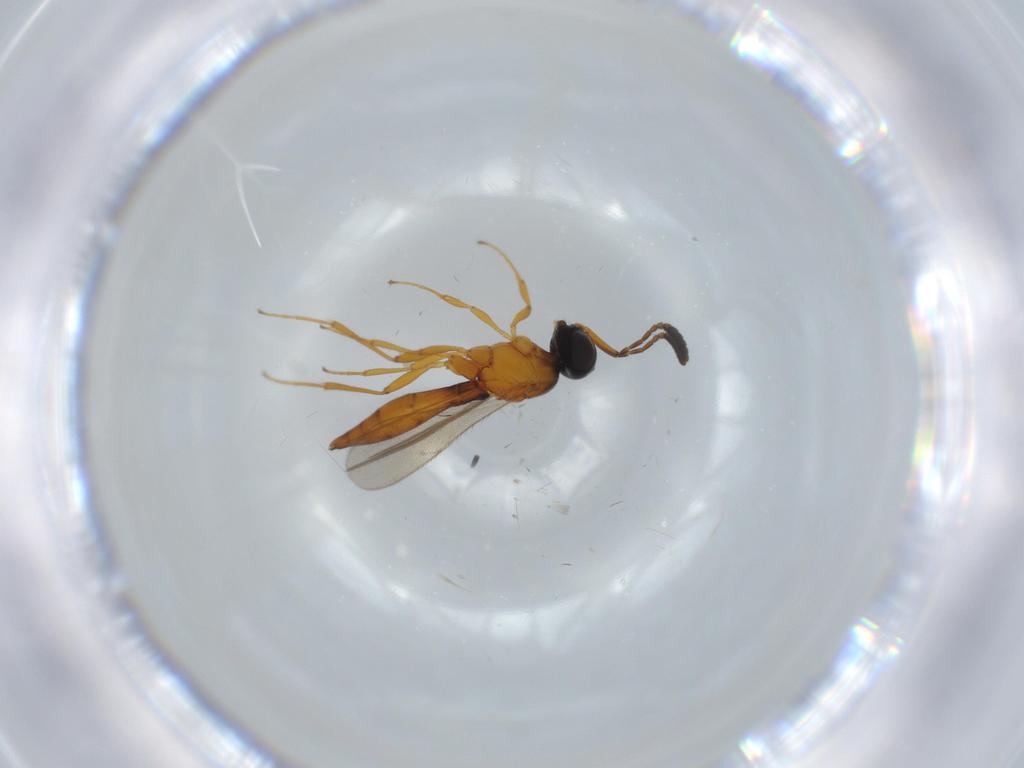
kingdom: Animalia
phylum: Arthropoda
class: Insecta
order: Hymenoptera
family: Scelionidae
